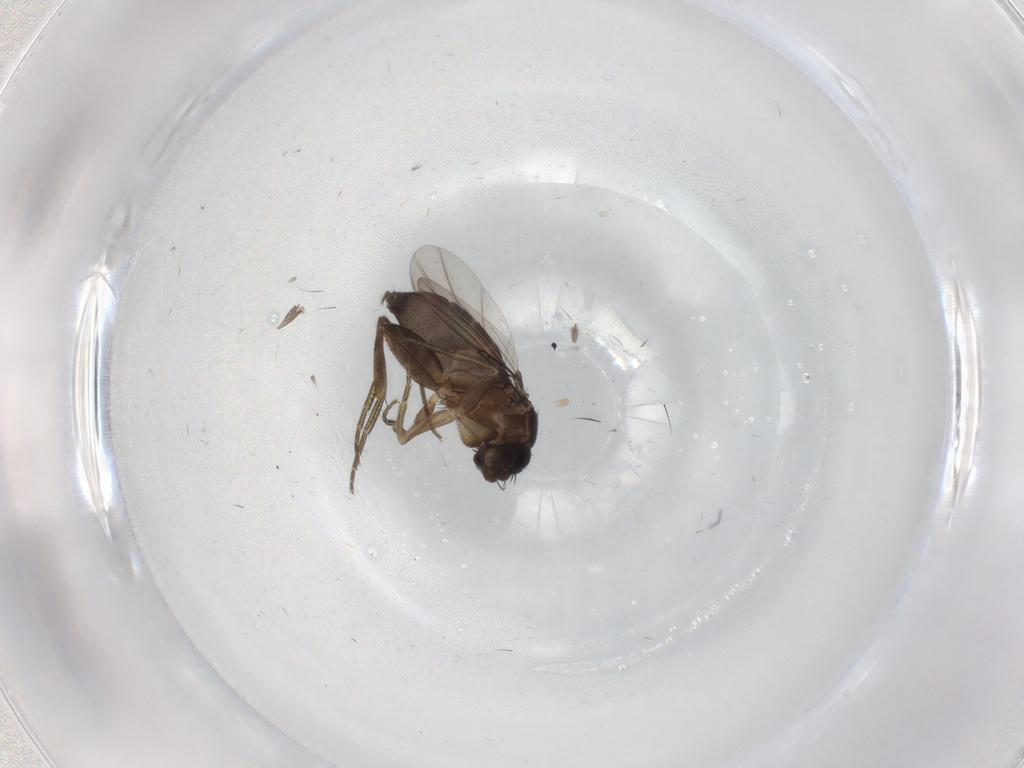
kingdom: Animalia
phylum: Arthropoda
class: Insecta
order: Diptera
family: Phoridae
